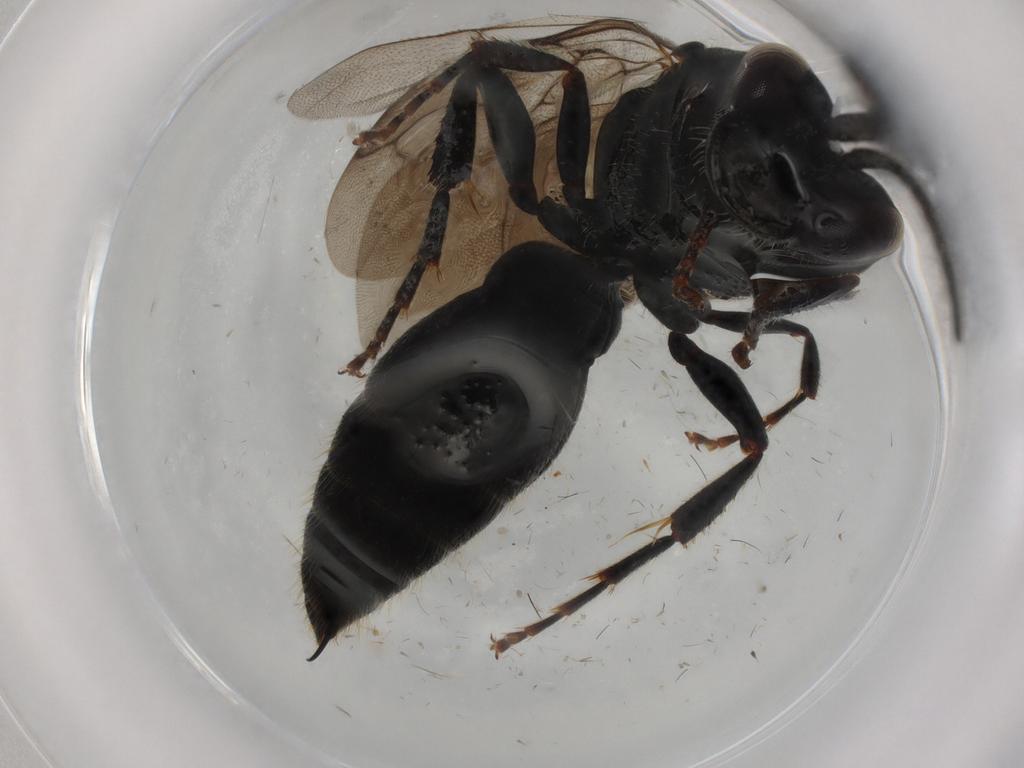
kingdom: Animalia
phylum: Arthropoda
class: Insecta
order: Hymenoptera
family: Tiphiidae
